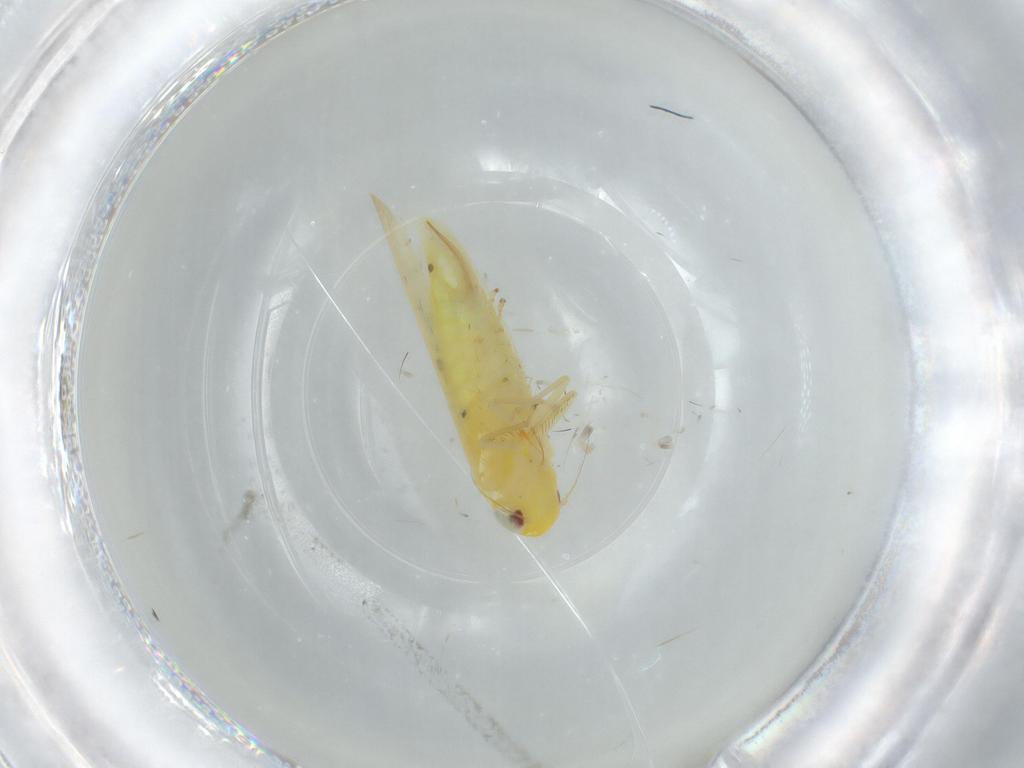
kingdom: Animalia
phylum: Arthropoda
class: Insecta
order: Hemiptera
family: Cicadellidae
